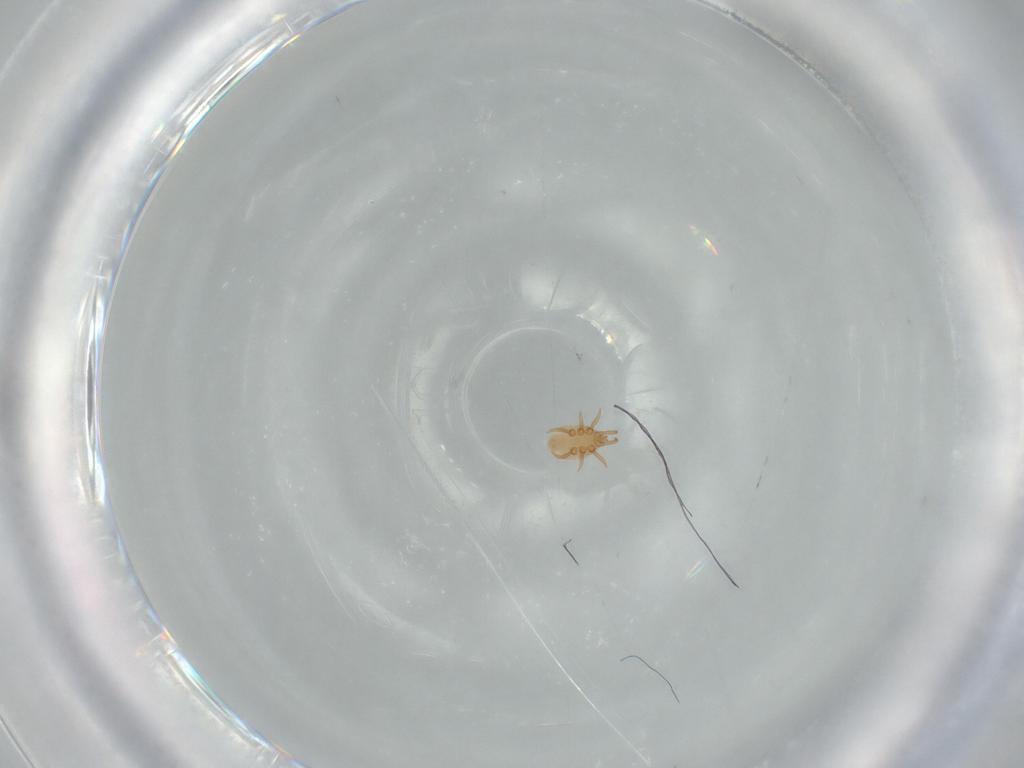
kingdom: Animalia
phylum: Arthropoda
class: Arachnida
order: Mesostigmata
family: Dinychidae
